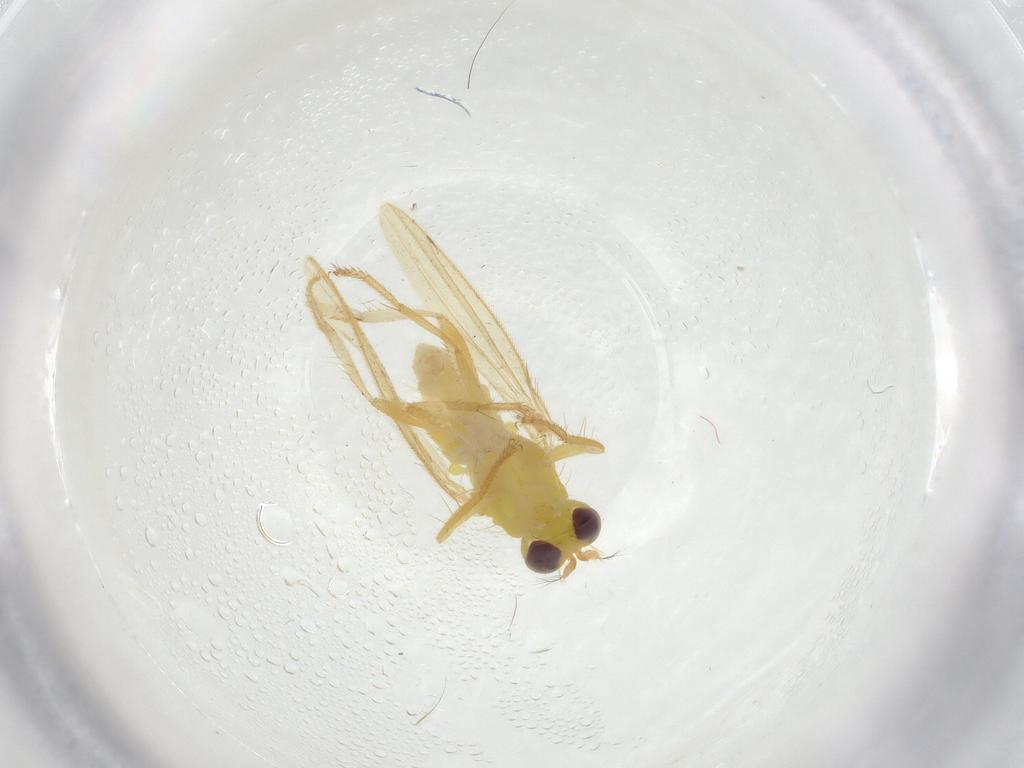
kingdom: Animalia
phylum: Arthropoda
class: Insecta
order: Diptera
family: Periscelididae
